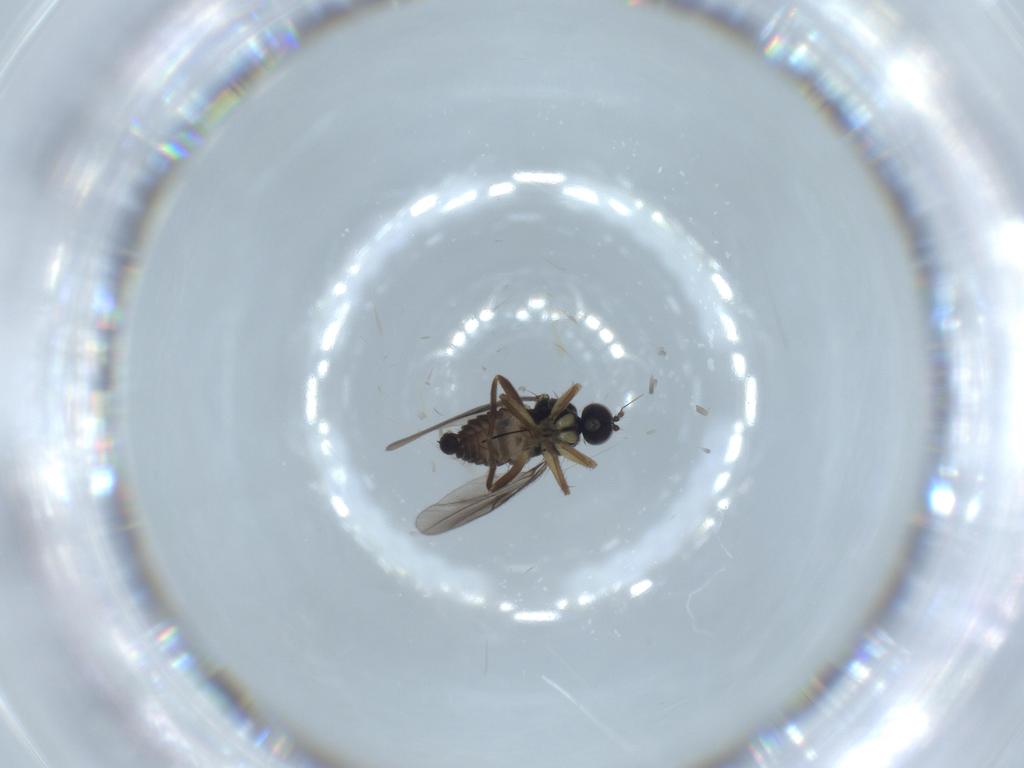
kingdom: Animalia
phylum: Arthropoda
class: Insecta
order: Diptera
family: Hybotidae
